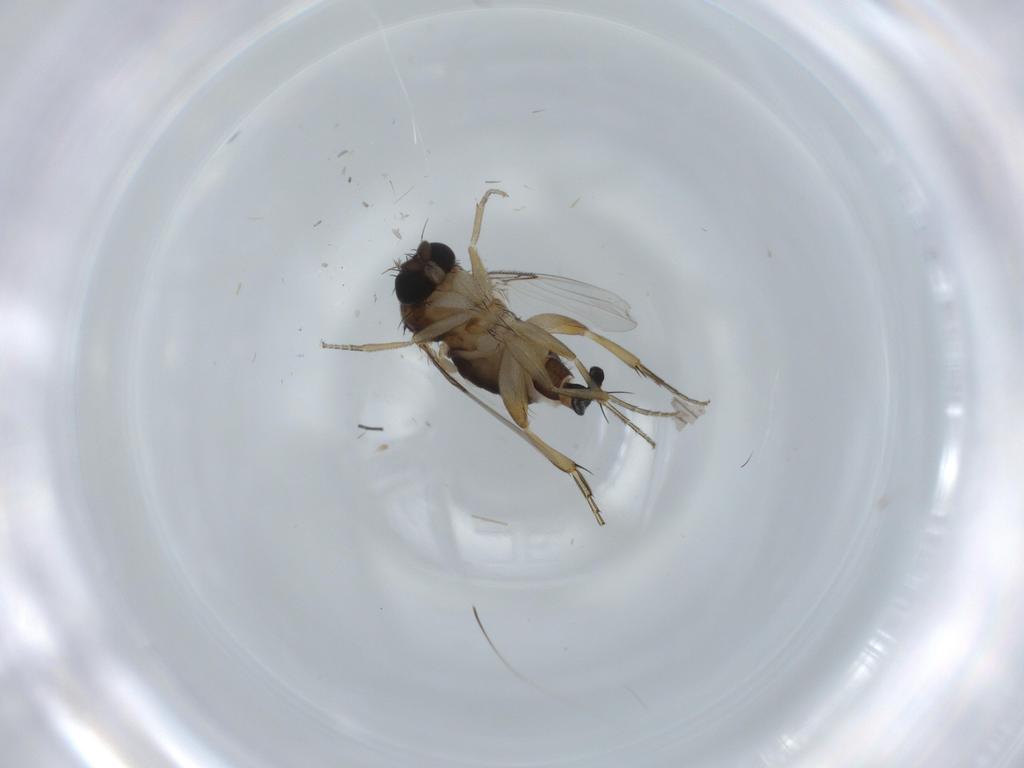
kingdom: Animalia
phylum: Arthropoda
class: Insecta
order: Diptera
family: Phoridae
